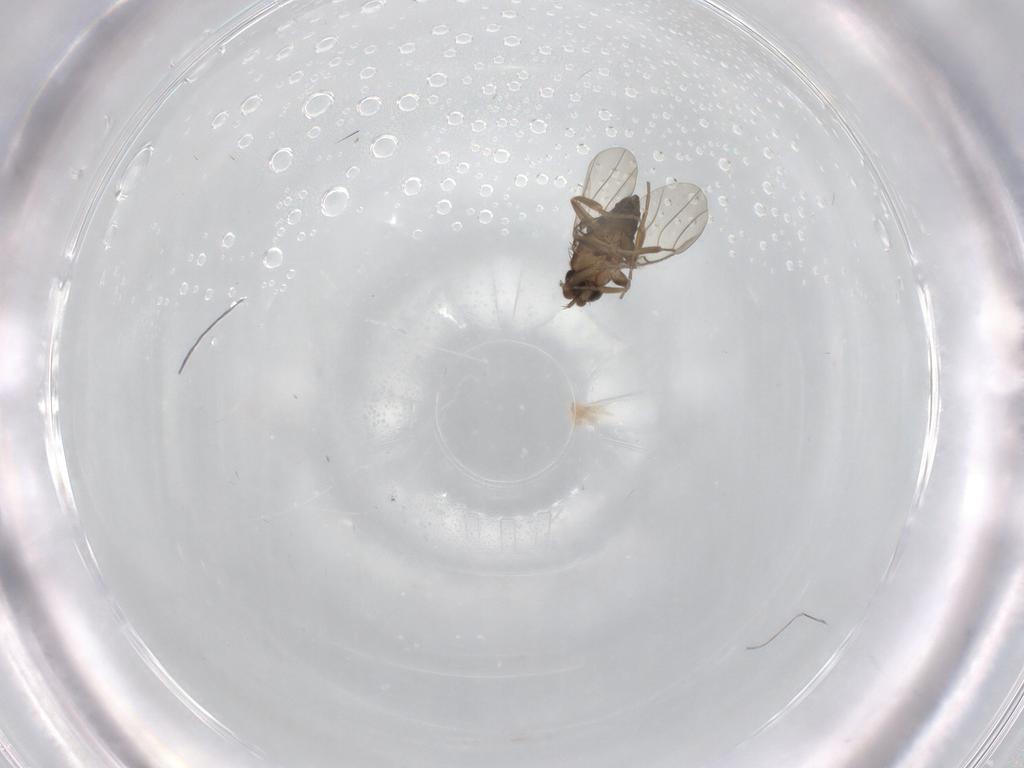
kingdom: Animalia
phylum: Arthropoda
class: Insecta
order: Diptera
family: Phoridae
